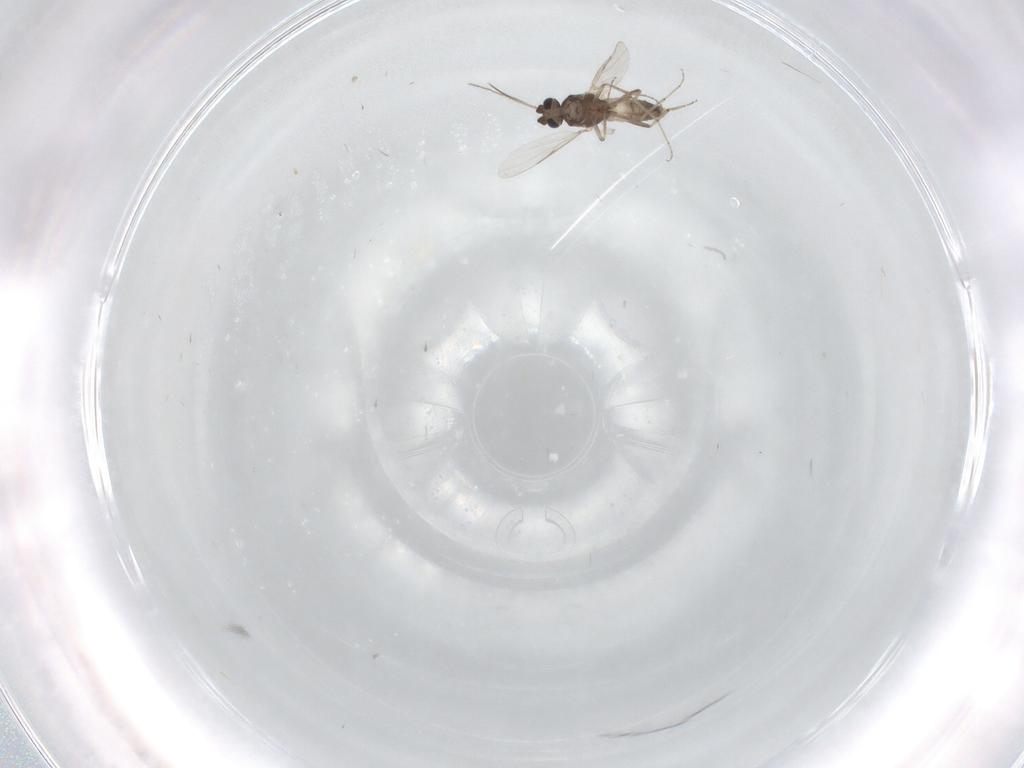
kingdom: Animalia
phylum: Arthropoda
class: Insecta
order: Diptera
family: Ceratopogonidae
